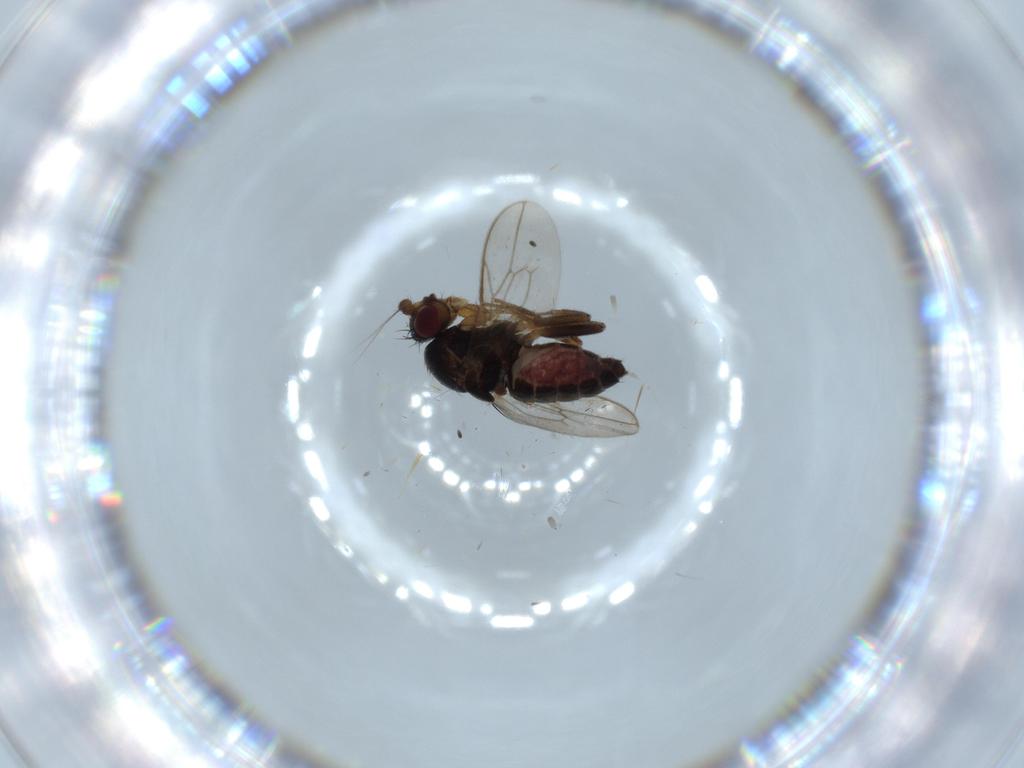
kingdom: Animalia
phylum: Arthropoda
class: Insecta
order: Diptera
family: Sphaeroceridae
